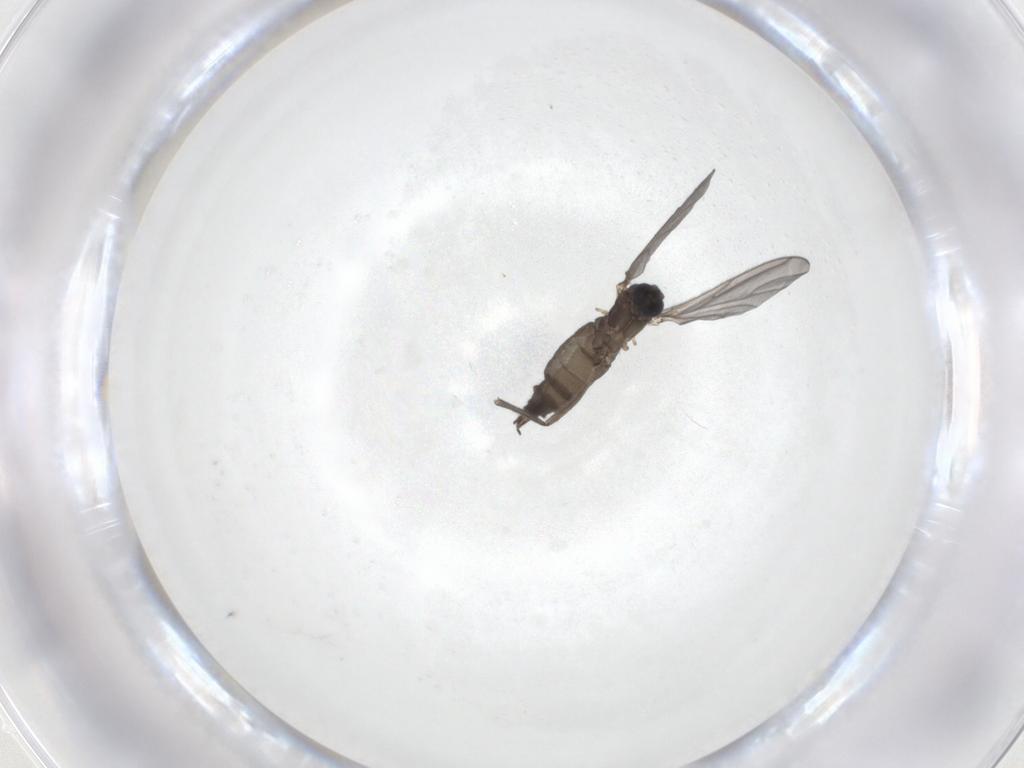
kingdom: Animalia
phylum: Arthropoda
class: Insecta
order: Diptera
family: Sciaridae
